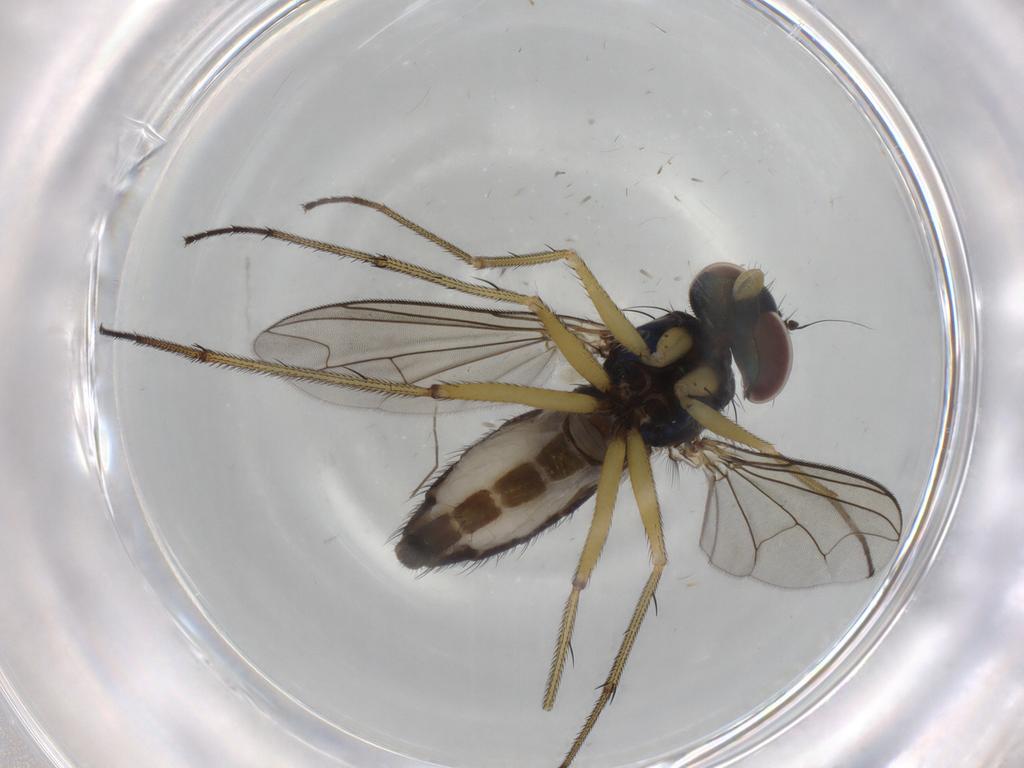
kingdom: Animalia
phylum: Arthropoda
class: Insecta
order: Diptera
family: Dolichopodidae
